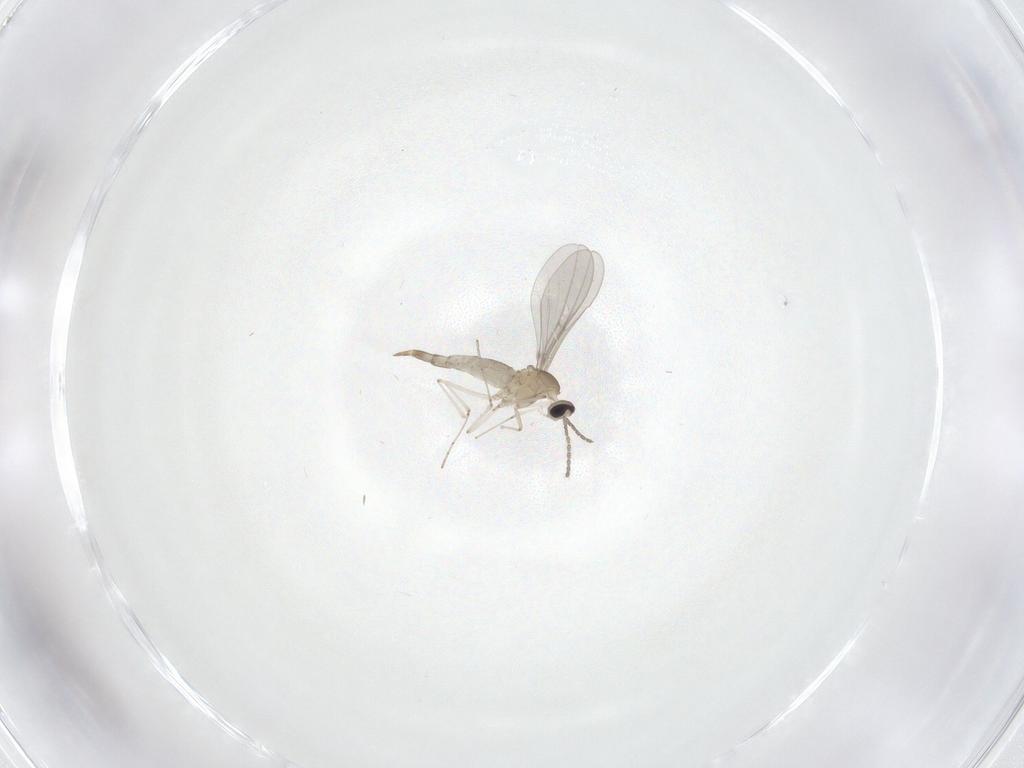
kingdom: Animalia
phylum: Arthropoda
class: Insecta
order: Diptera
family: Cecidomyiidae
